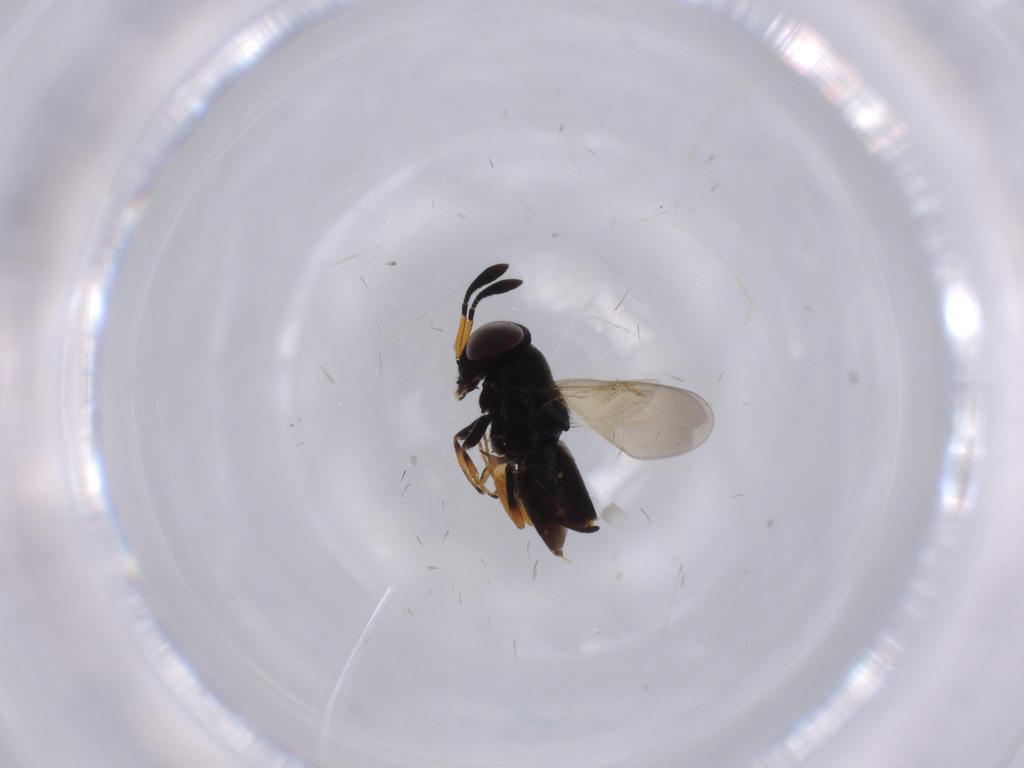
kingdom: Animalia
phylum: Arthropoda
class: Insecta
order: Hymenoptera
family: Encyrtidae
